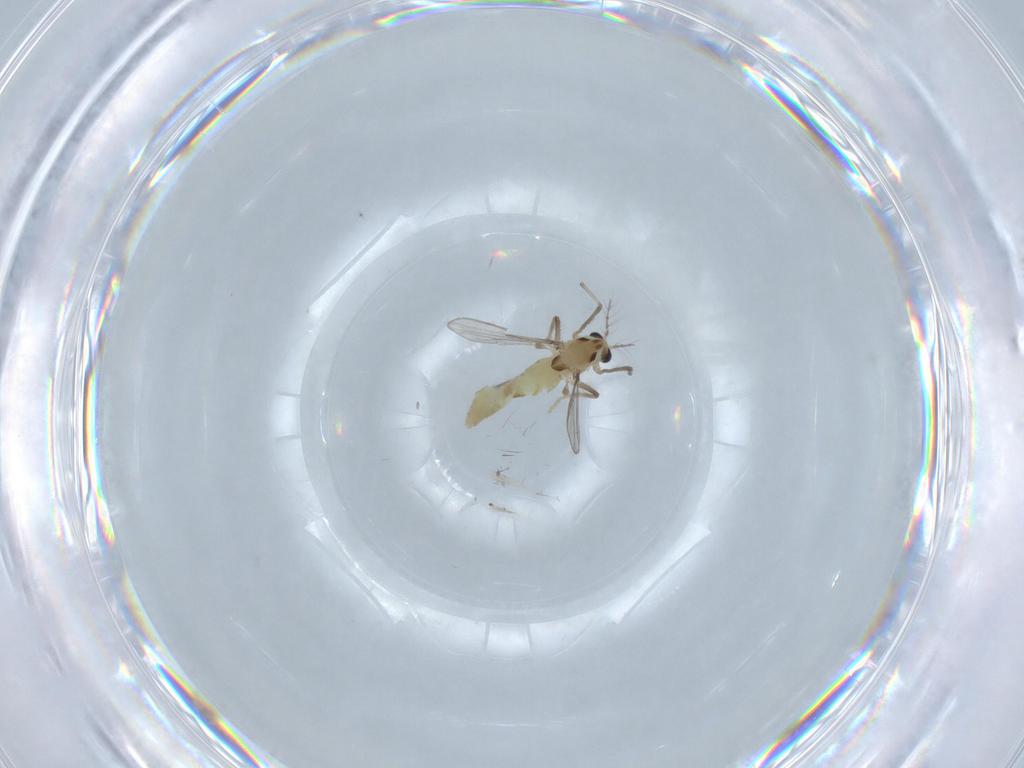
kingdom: Animalia
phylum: Arthropoda
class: Insecta
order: Diptera
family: Chironomidae
